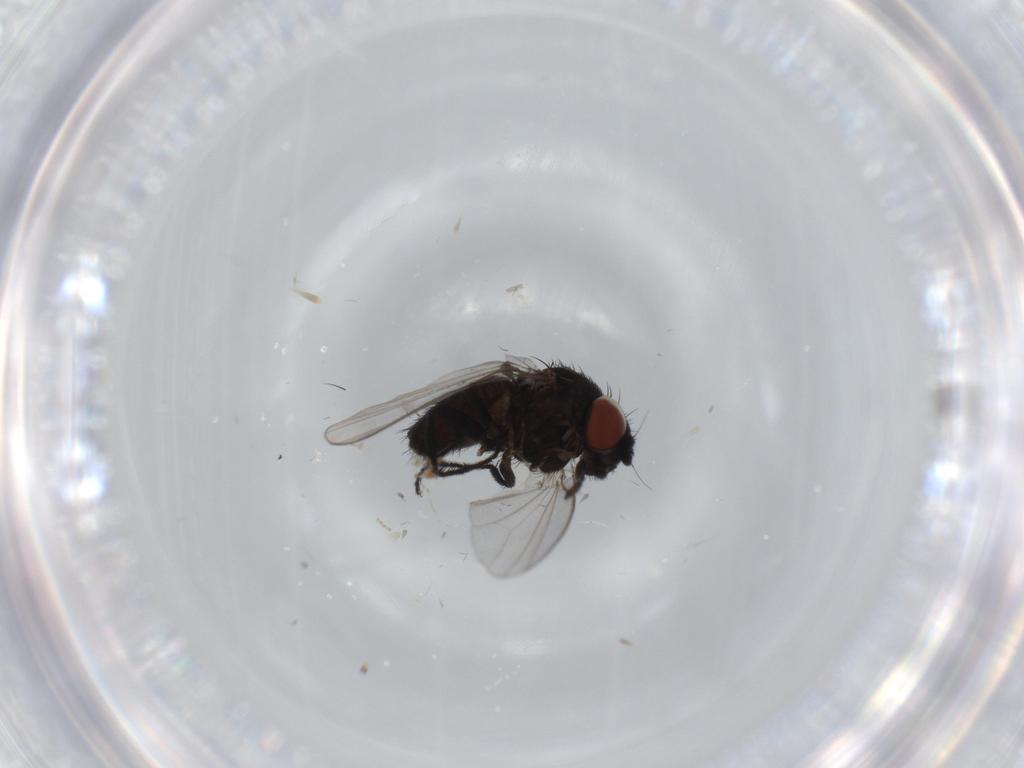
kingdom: Animalia
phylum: Arthropoda
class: Insecta
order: Diptera
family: Milichiidae
